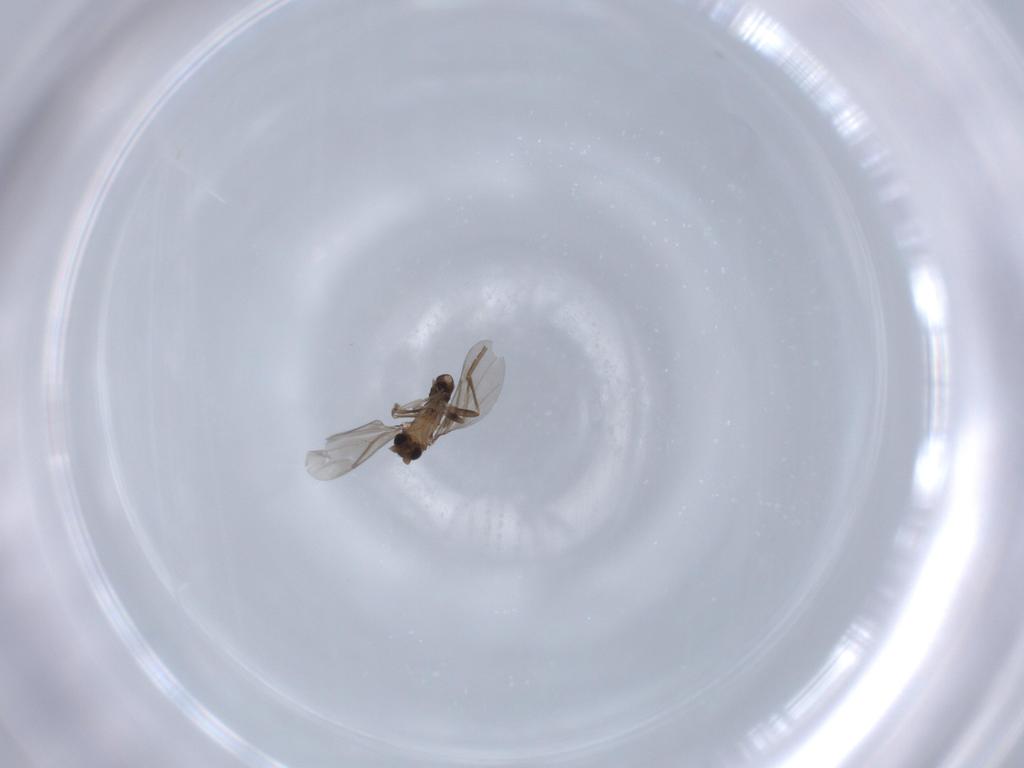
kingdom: Animalia
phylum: Arthropoda
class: Insecta
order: Diptera
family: Phoridae
